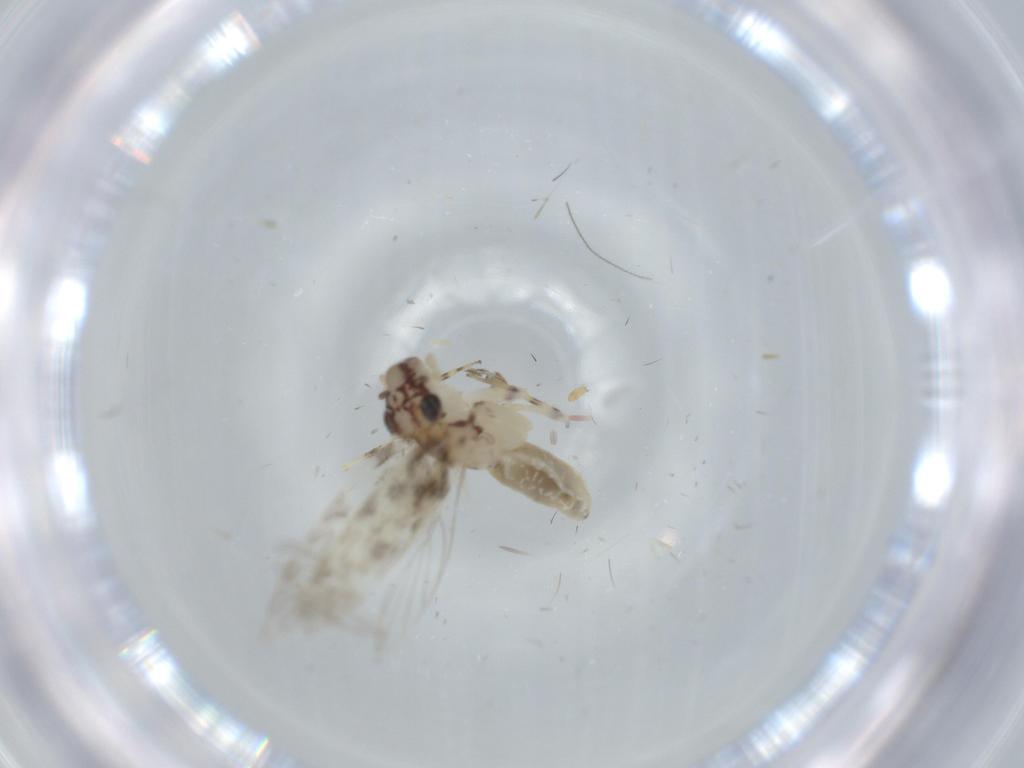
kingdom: Animalia
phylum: Arthropoda
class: Insecta
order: Psocodea
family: Lepidopsocidae
